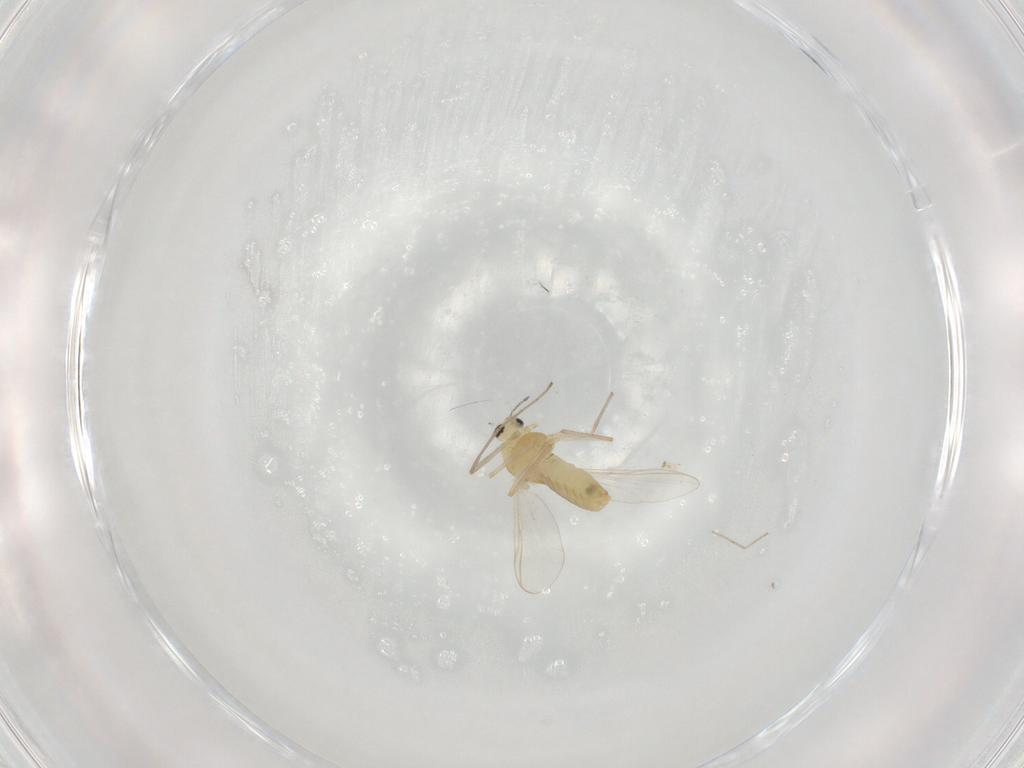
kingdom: Animalia
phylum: Arthropoda
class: Insecta
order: Diptera
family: Chironomidae
